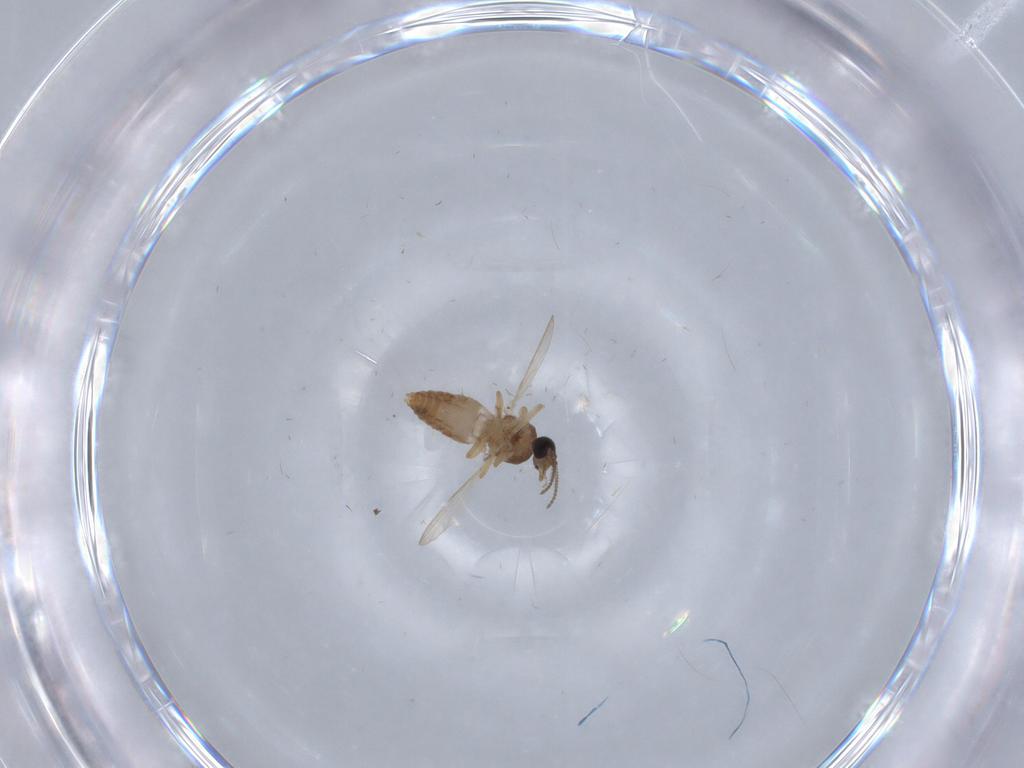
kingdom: Animalia
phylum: Arthropoda
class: Insecta
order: Diptera
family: Ceratopogonidae
